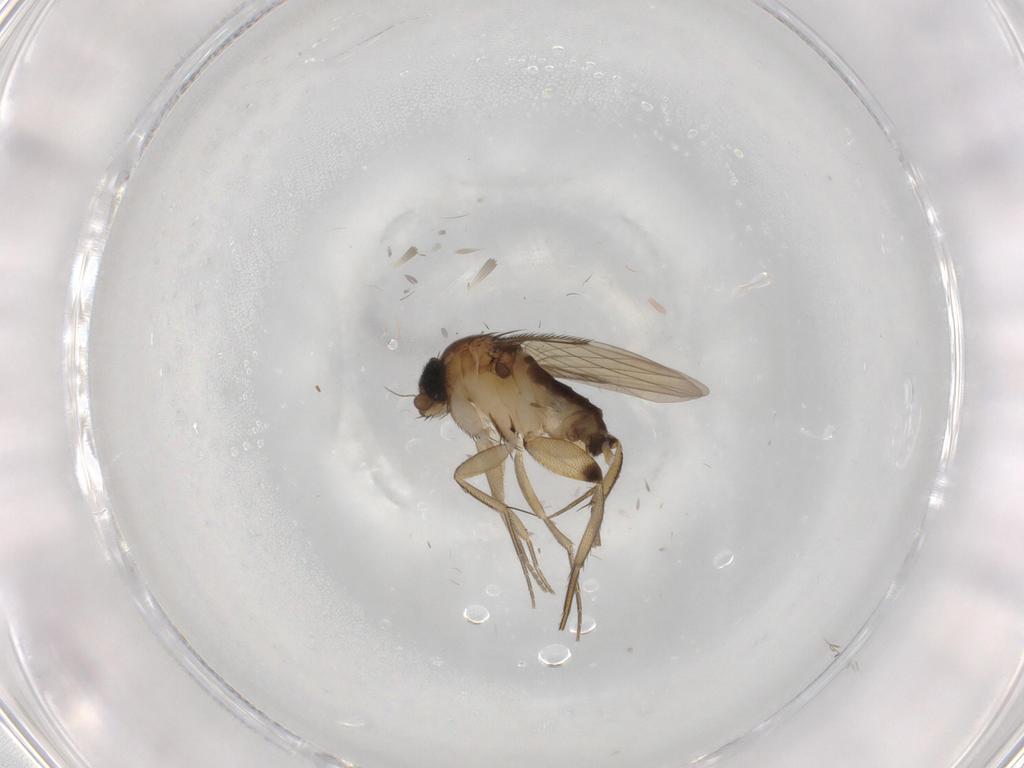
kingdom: Animalia
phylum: Arthropoda
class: Insecta
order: Diptera
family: Phoridae
